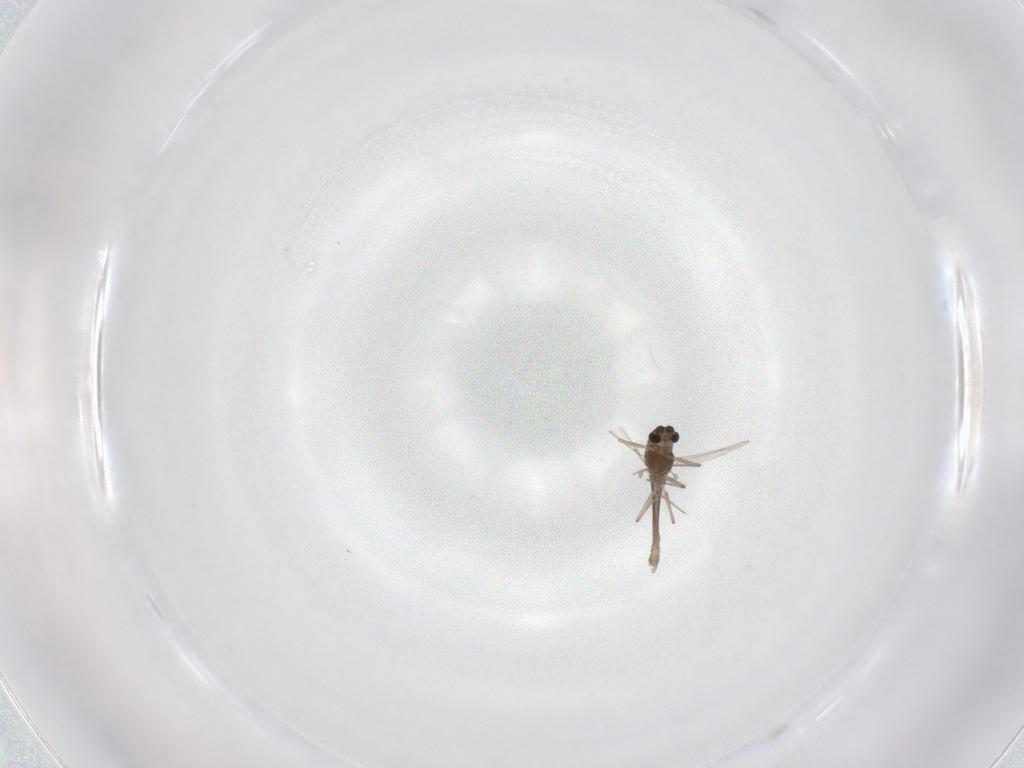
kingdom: Animalia
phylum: Arthropoda
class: Insecta
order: Diptera
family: Chironomidae
